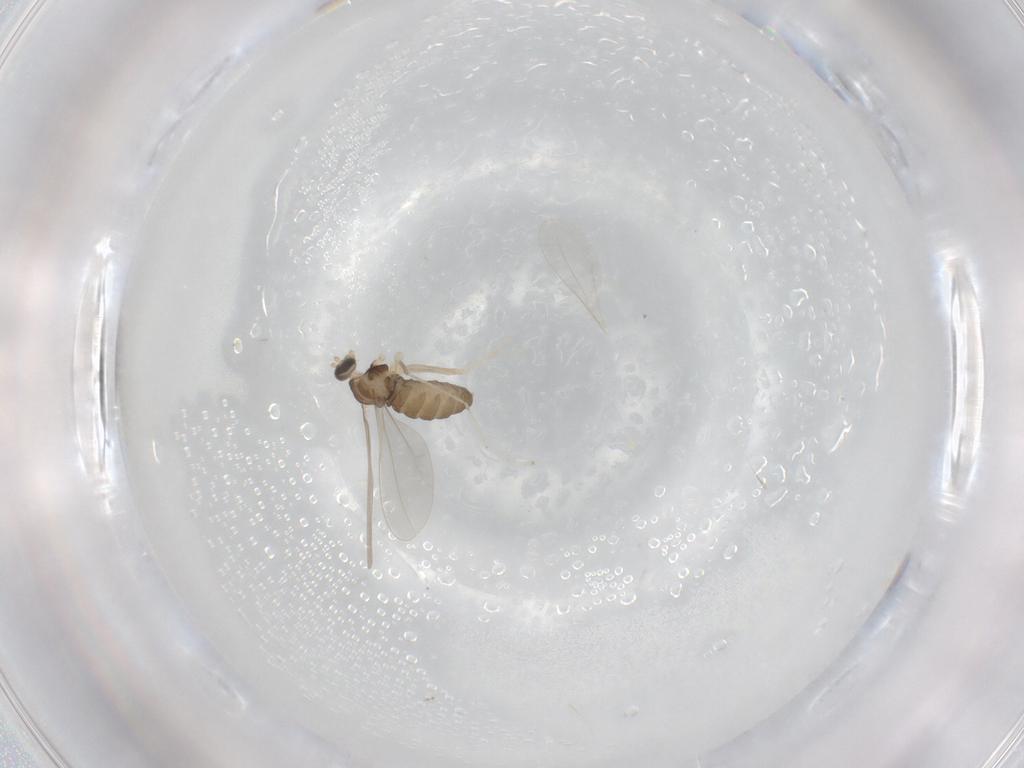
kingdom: Animalia
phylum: Arthropoda
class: Insecta
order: Diptera
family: Cecidomyiidae
